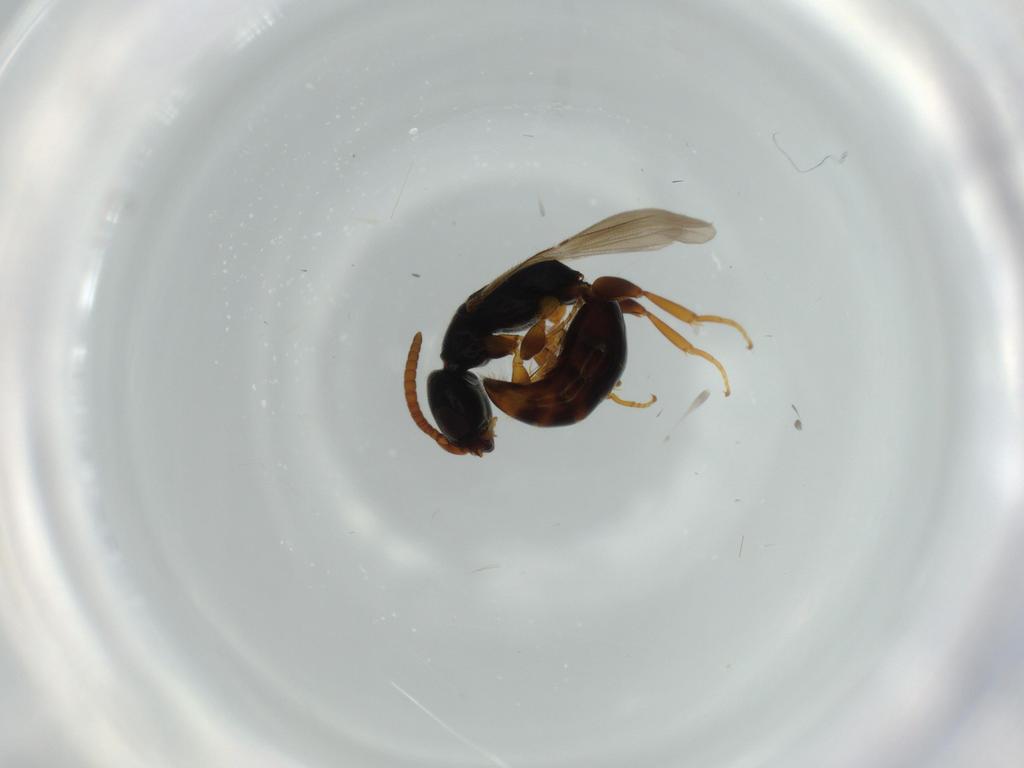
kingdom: Animalia
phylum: Arthropoda
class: Insecta
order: Hymenoptera
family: Bethylidae
